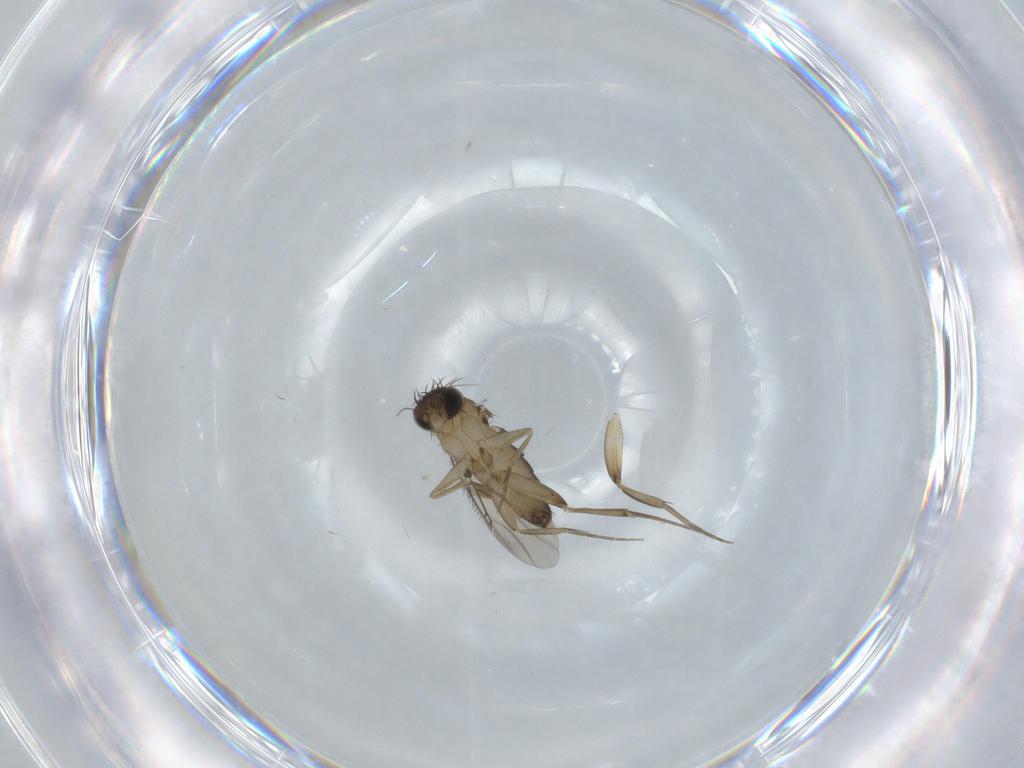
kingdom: Animalia
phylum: Arthropoda
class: Insecta
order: Diptera
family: Phoridae
